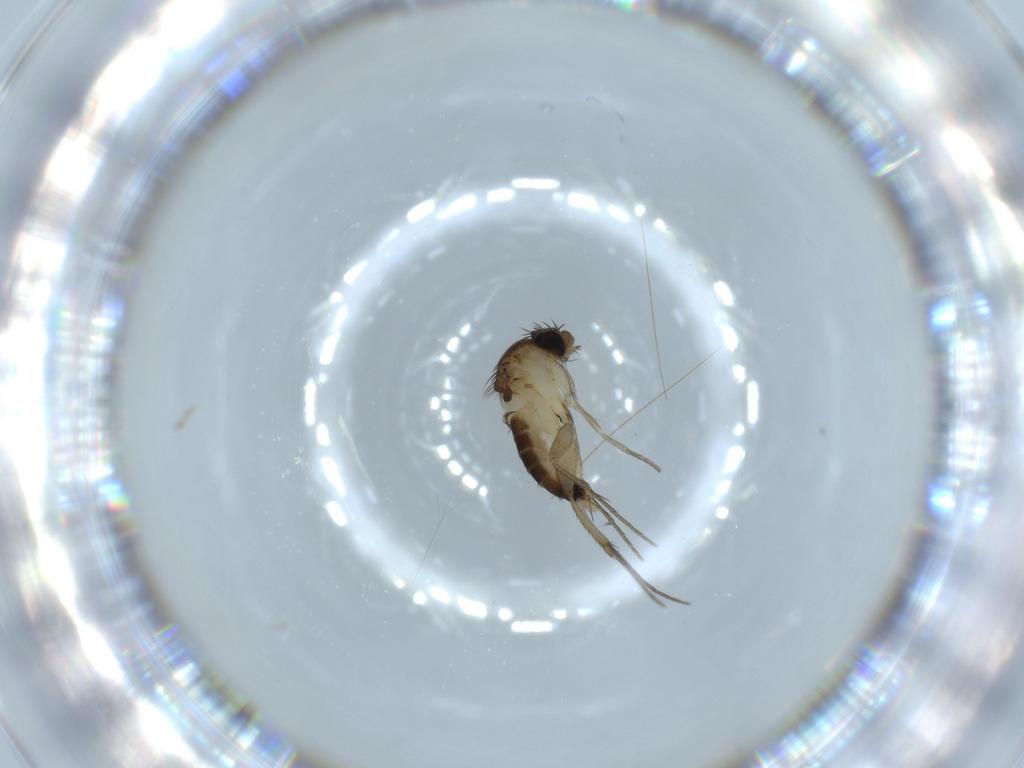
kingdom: Animalia
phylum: Arthropoda
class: Insecta
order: Diptera
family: Phoridae
